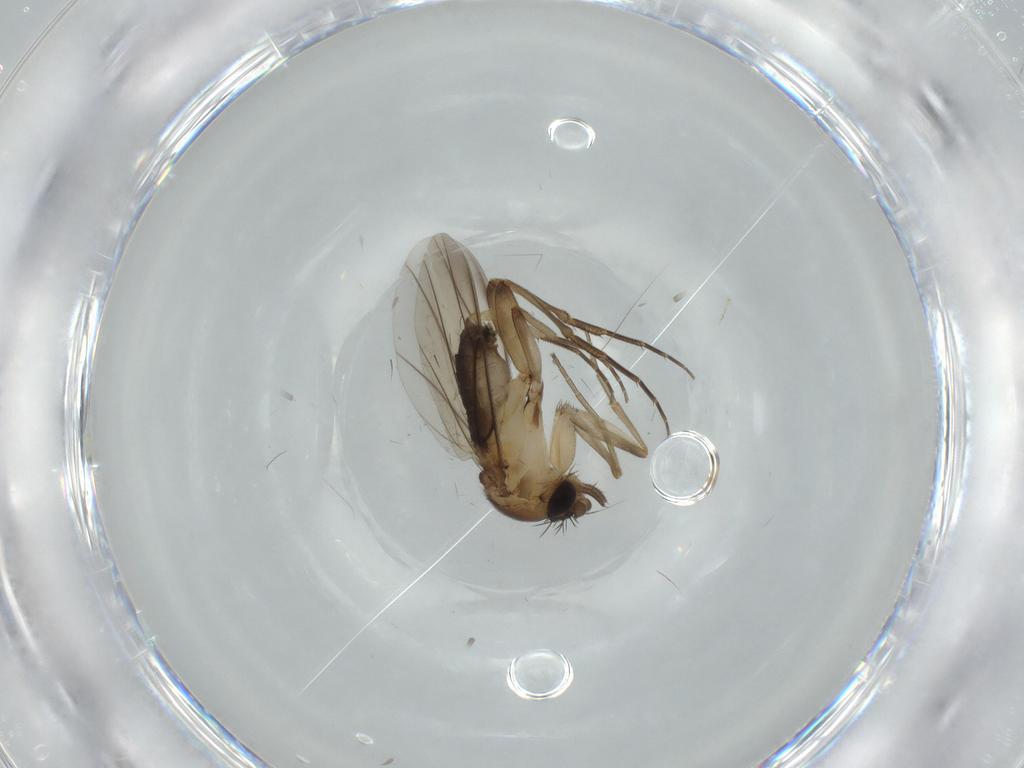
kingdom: Animalia
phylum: Arthropoda
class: Insecta
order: Diptera
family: Phoridae
